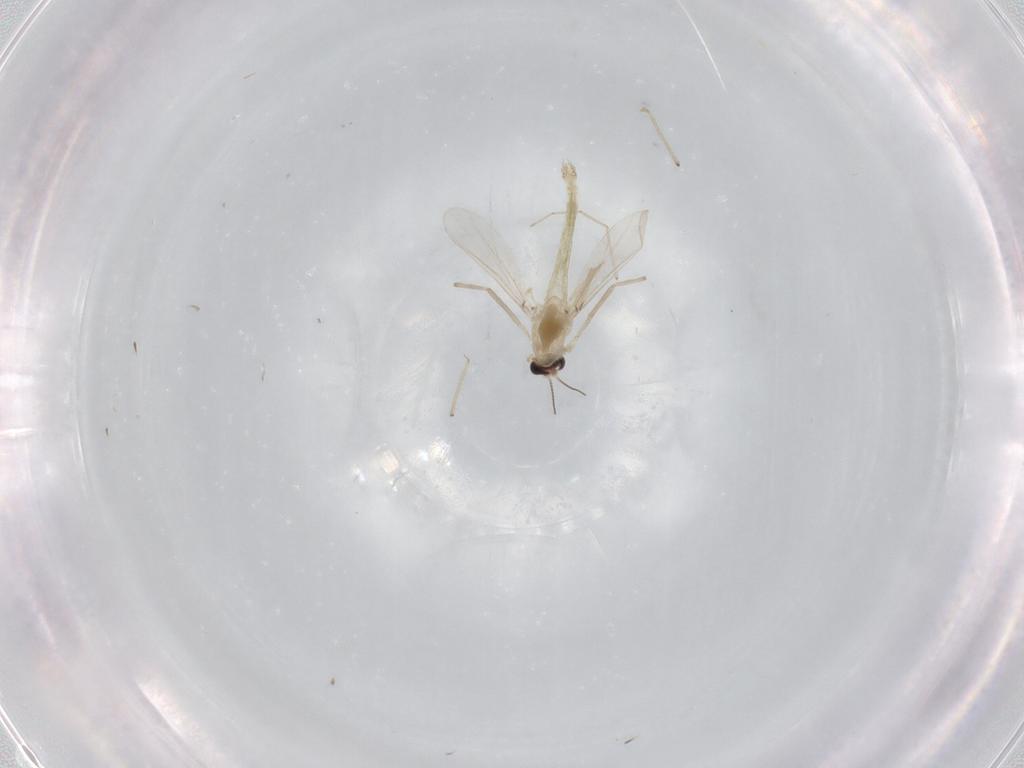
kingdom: Animalia
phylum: Arthropoda
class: Insecta
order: Diptera
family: Chironomidae
